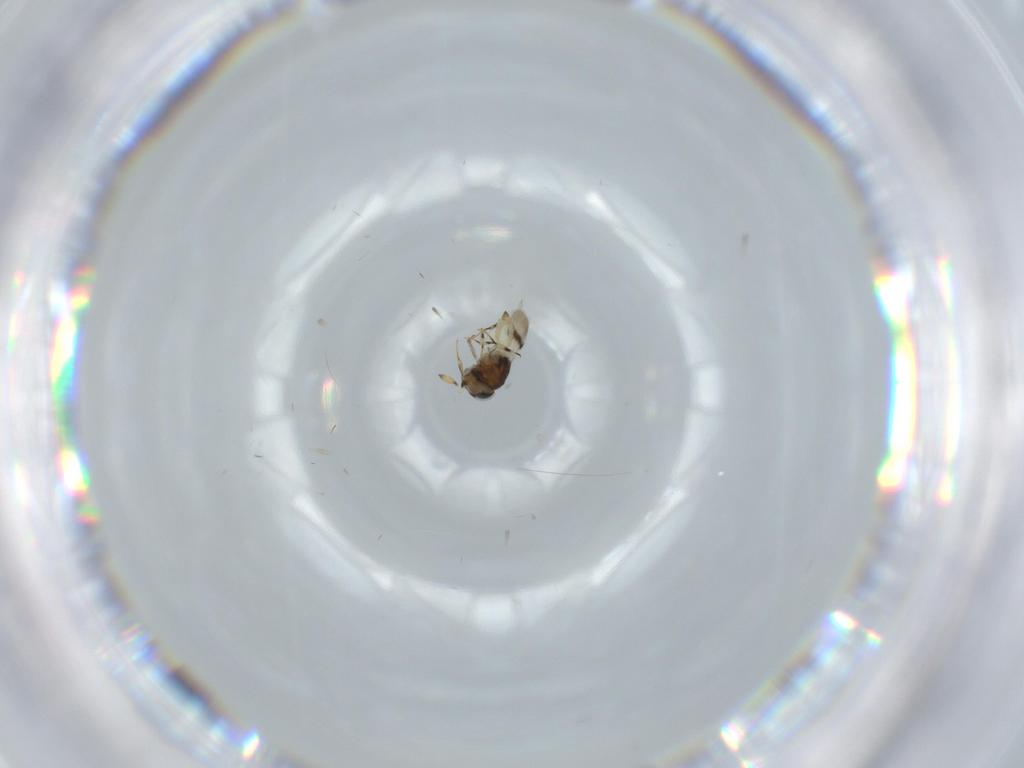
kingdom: Animalia
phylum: Arthropoda
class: Insecta
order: Hymenoptera
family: Scelionidae
